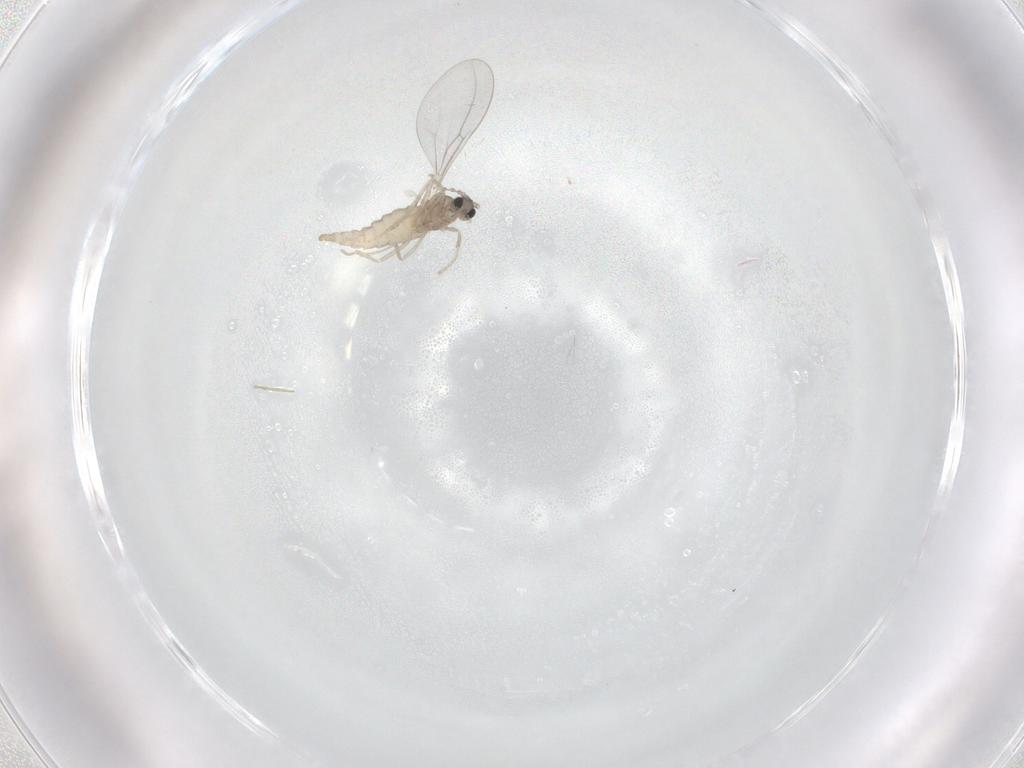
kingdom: Animalia
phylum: Arthropoda
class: Insecta
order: Diptera
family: Cecidomyiidae
